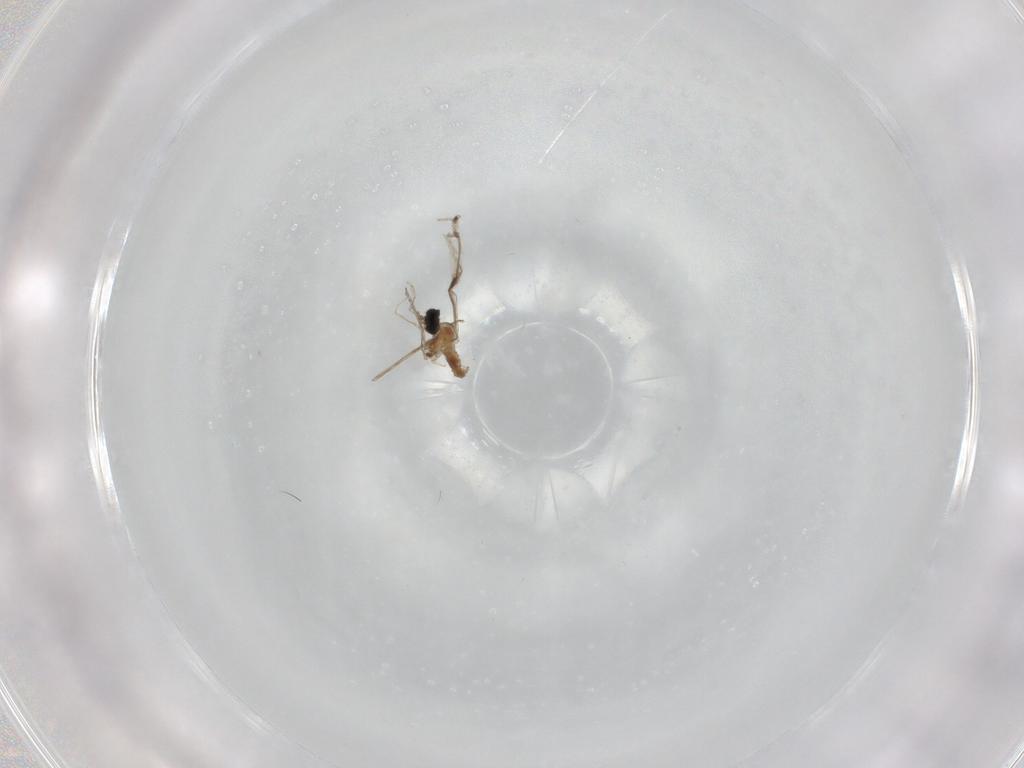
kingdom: Animalia
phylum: Arthropoda
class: Insecta
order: Diptera
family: Cecidomyiidae
